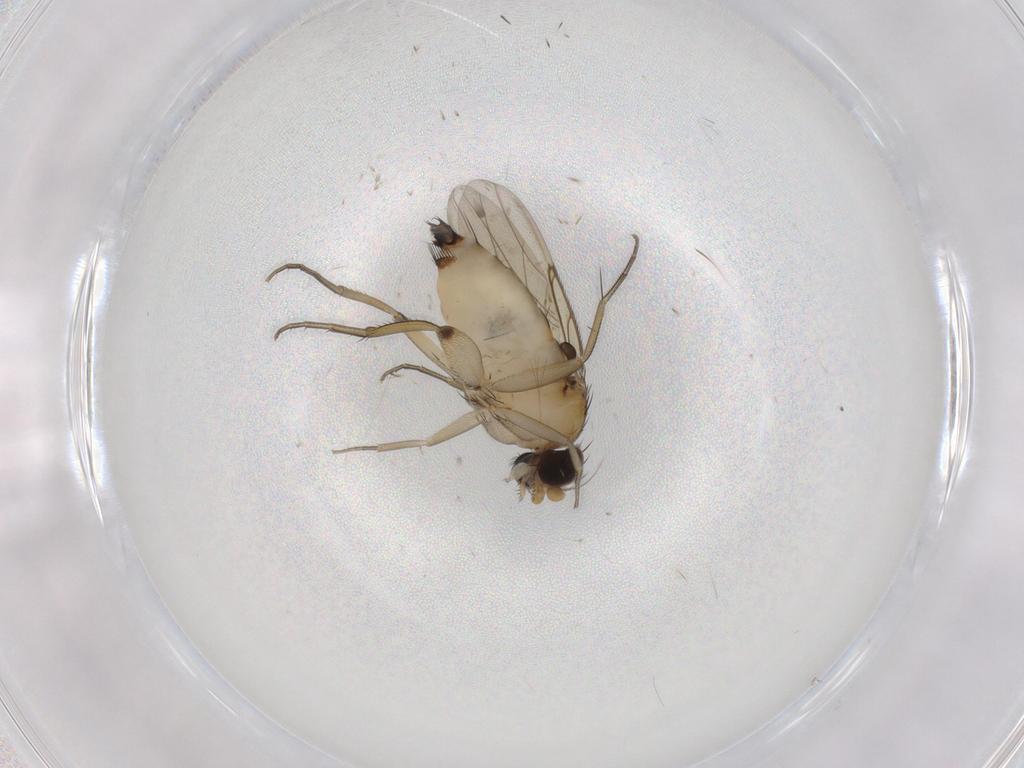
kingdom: Animalia
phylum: Arthropoda
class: Insecta
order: Diptera
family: Phoridae
